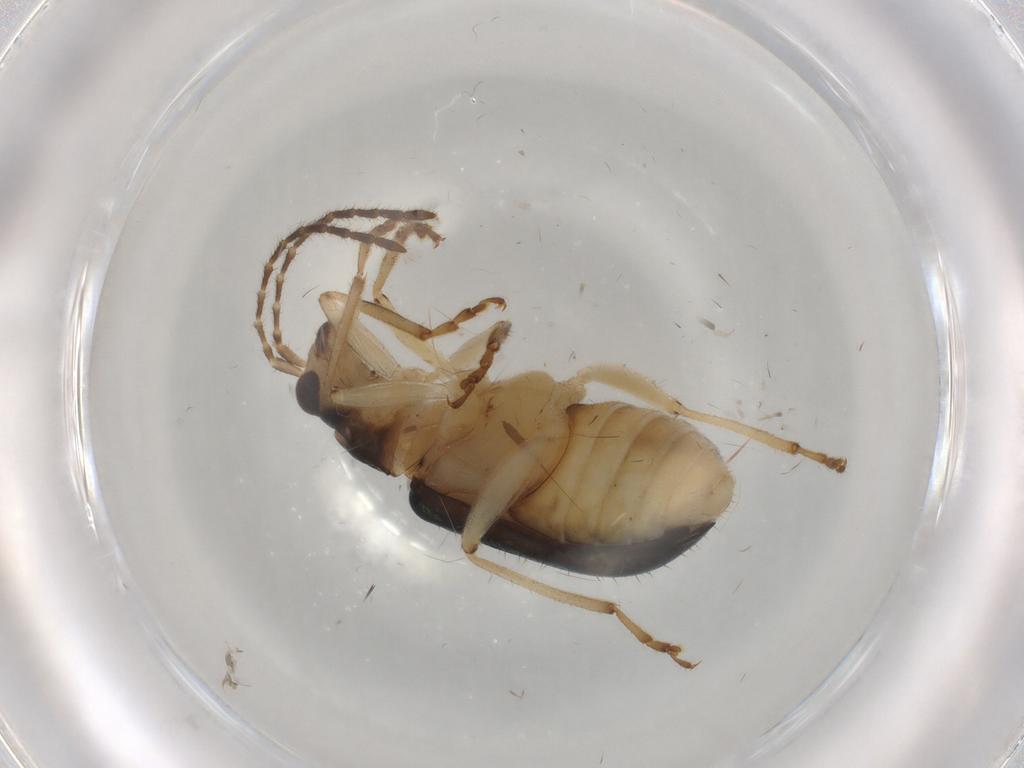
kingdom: Animalia
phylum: Arthropoda
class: Insecta
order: Coleoptera
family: Chrysomelidae
